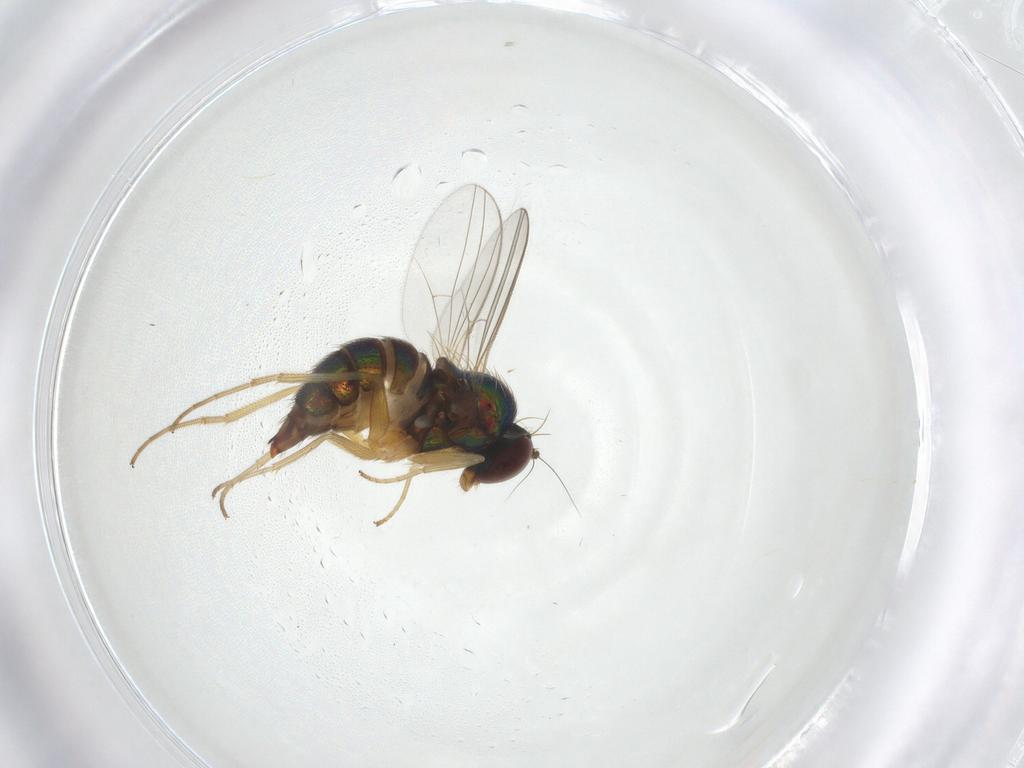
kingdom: Animalia
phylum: Arthropoda
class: Insecta
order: Diptera
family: Dolichopodidae
